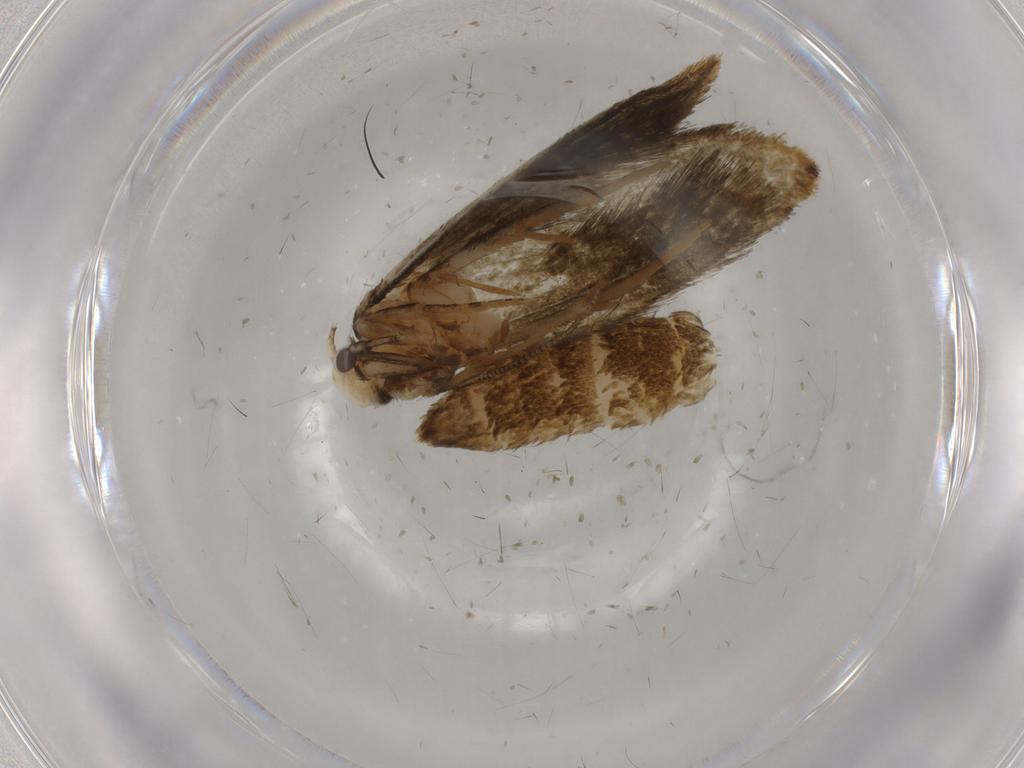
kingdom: Animalia
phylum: Arthropoda
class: Insecta
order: Lepidoptera
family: Pieridae
